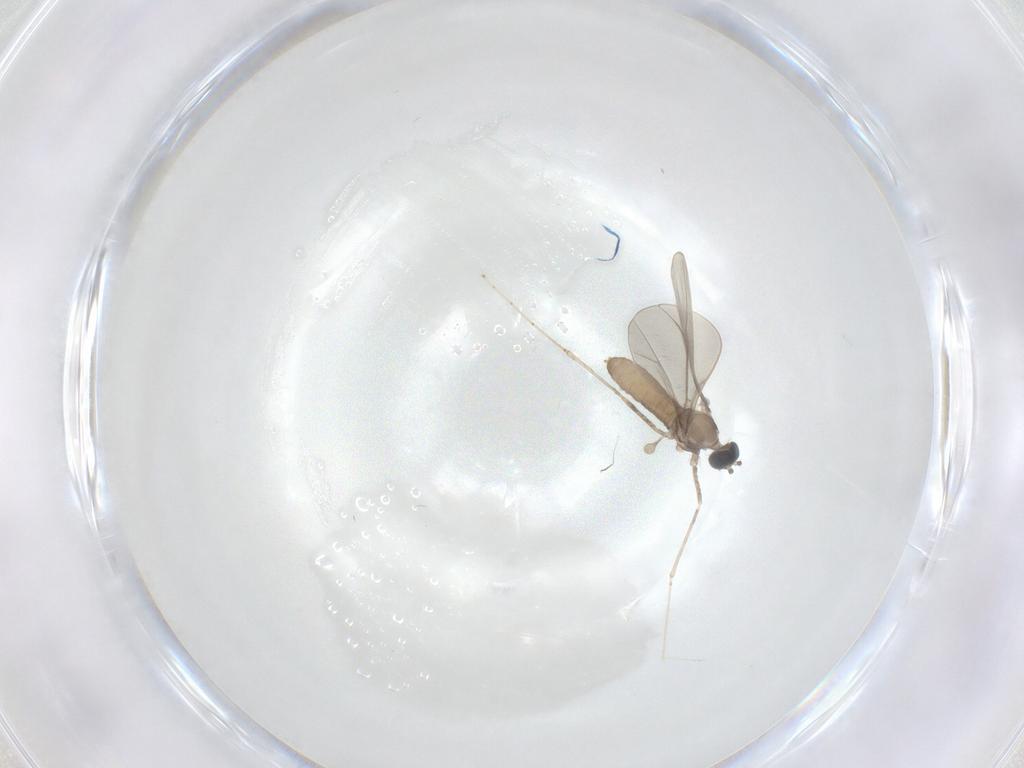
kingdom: Animalia
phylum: Arthropoda
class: Insecta
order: Diptera
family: Cecidomyiidae
